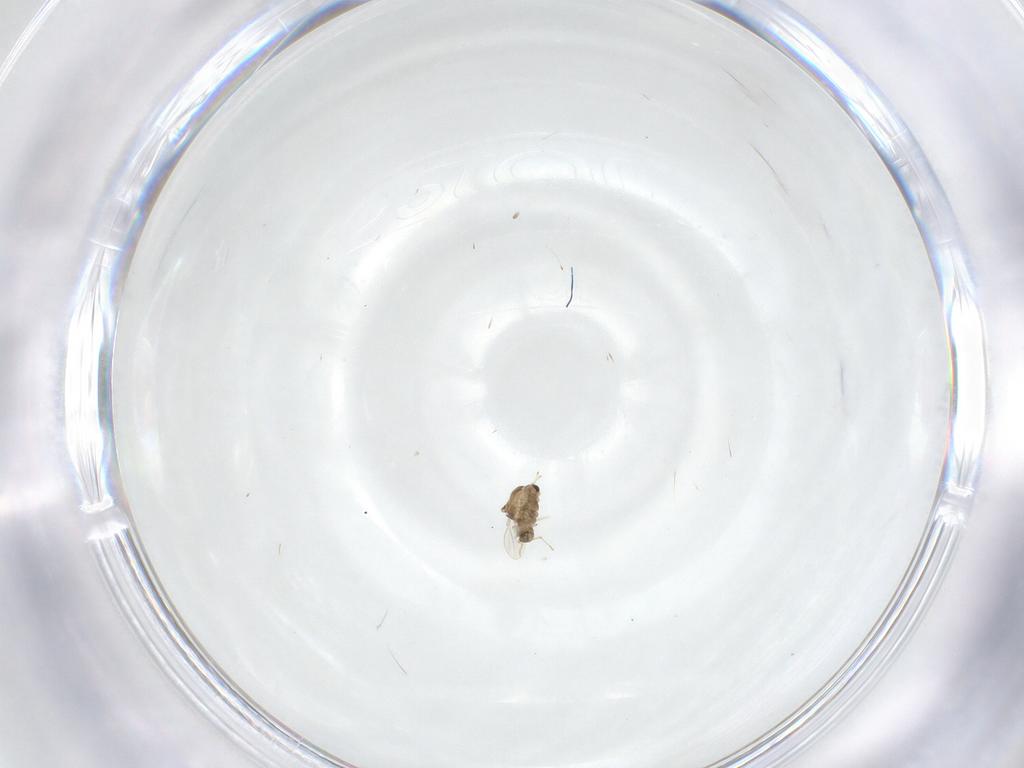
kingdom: Animalia
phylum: Arthropoda
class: Insecta
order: Diptera
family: Chironomidae
